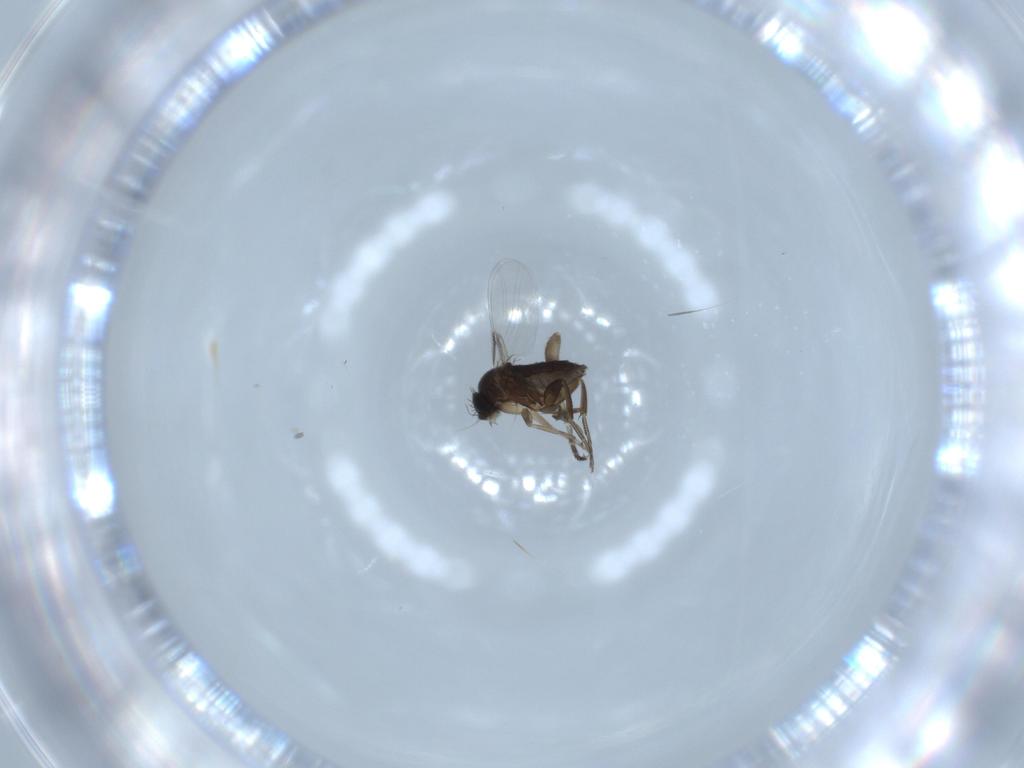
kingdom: Animalia
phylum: Arthropoda
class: Insecta
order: Diptera
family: Phoridae
